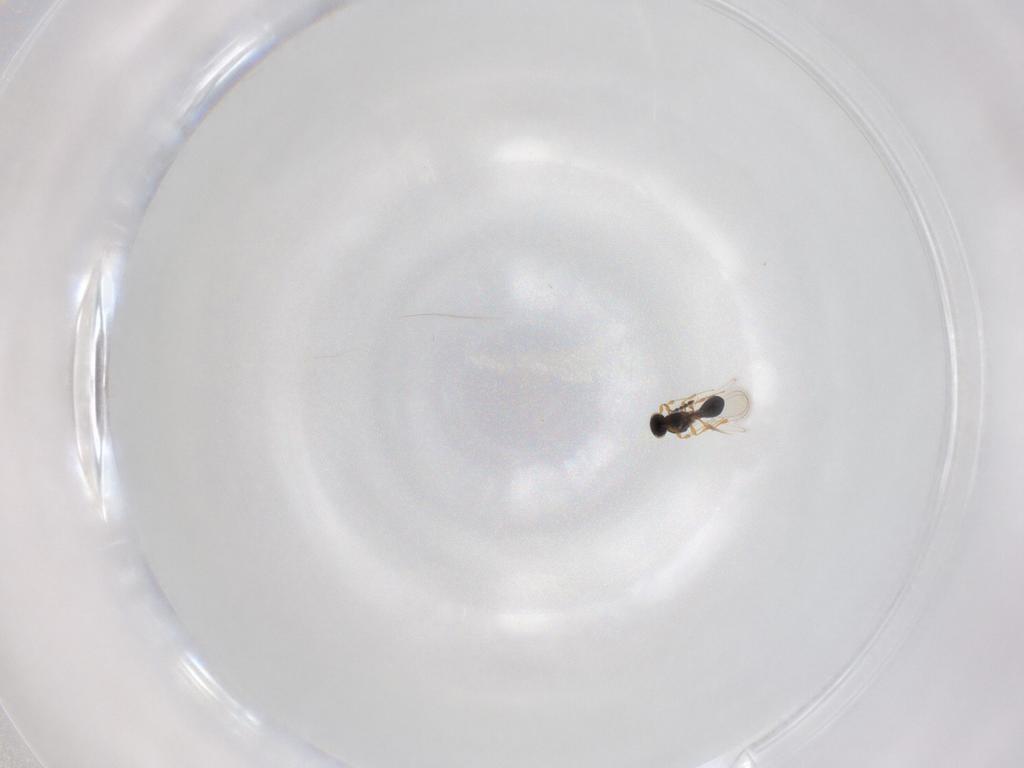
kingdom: Animalia
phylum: Arthropoda
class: Insecta
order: Hymenoptera
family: Platygastridae
